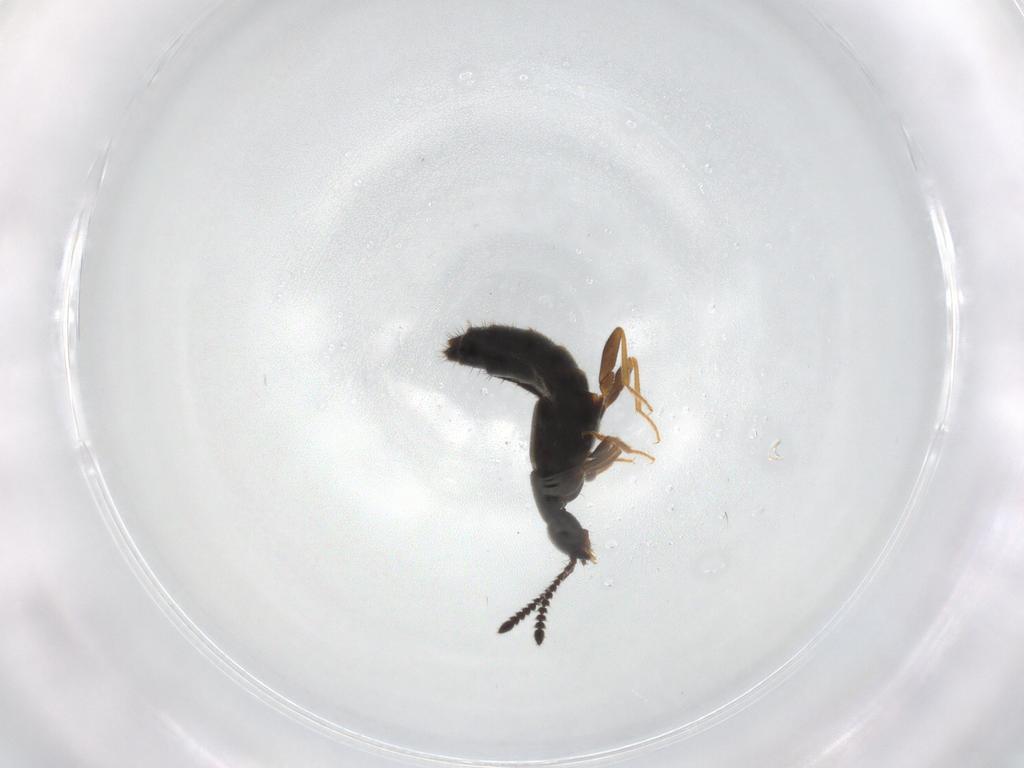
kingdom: Animalia
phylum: Arthropoda
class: Insecta
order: Coleoptera
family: Staphylinidae
